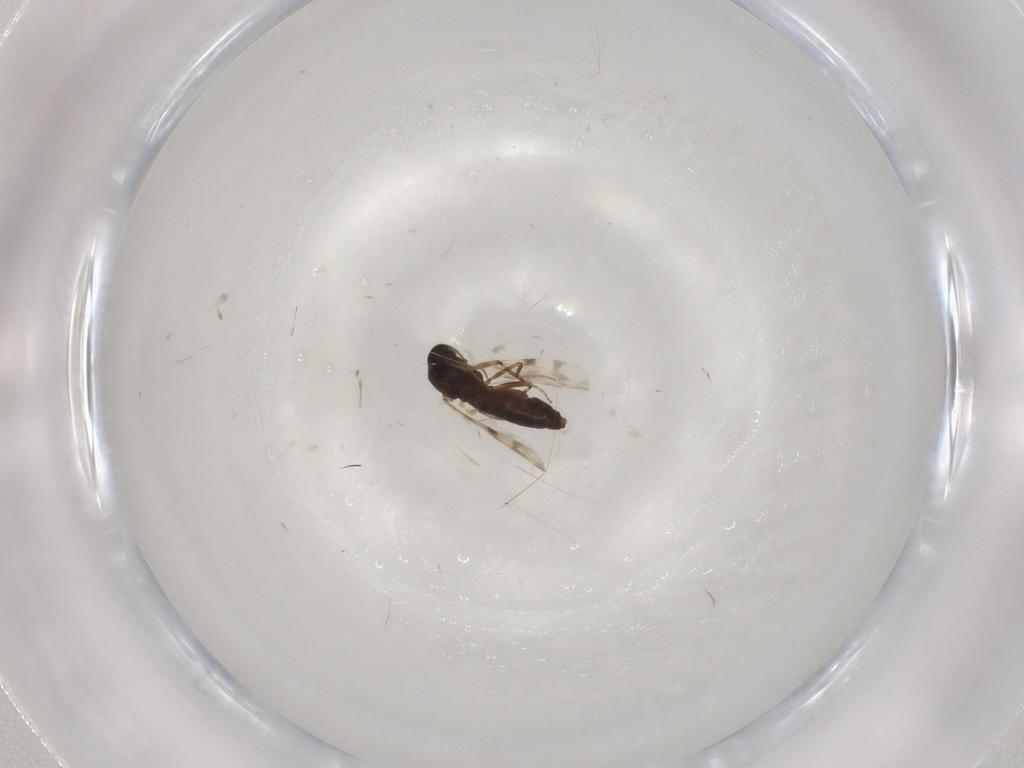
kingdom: Animalia
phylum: Arthropoda
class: Insecta
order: Diptera
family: Ceratopogonidae
